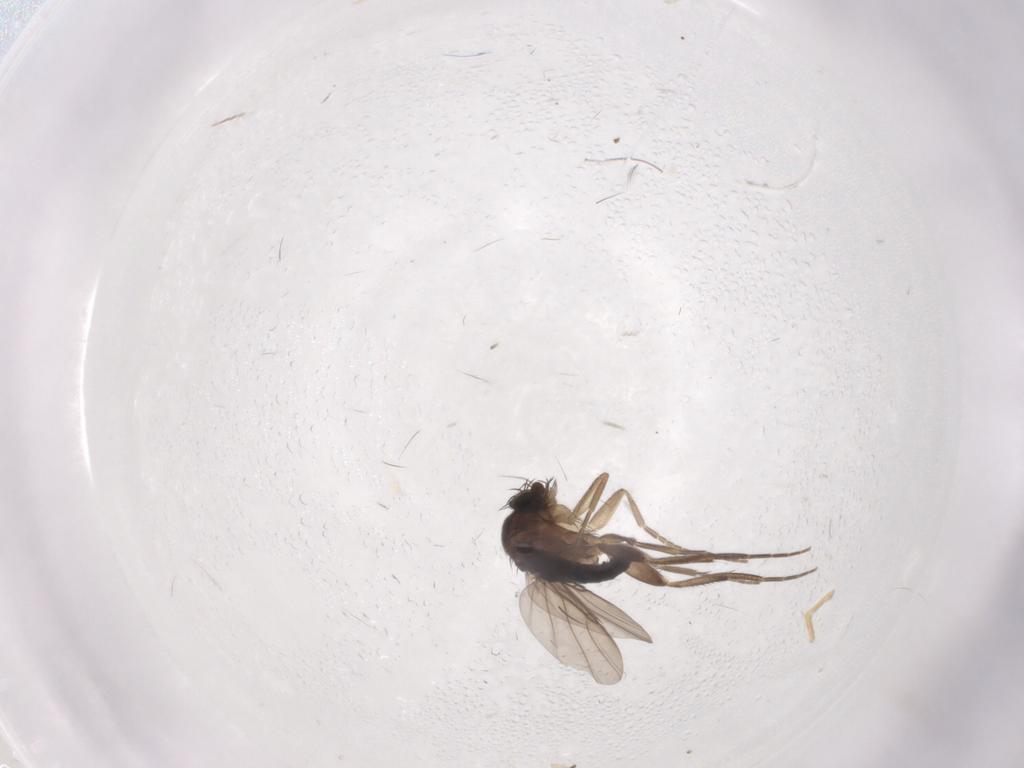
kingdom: Animalia
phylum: Arthropoda
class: Insecta
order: Diptera
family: Phoridae
